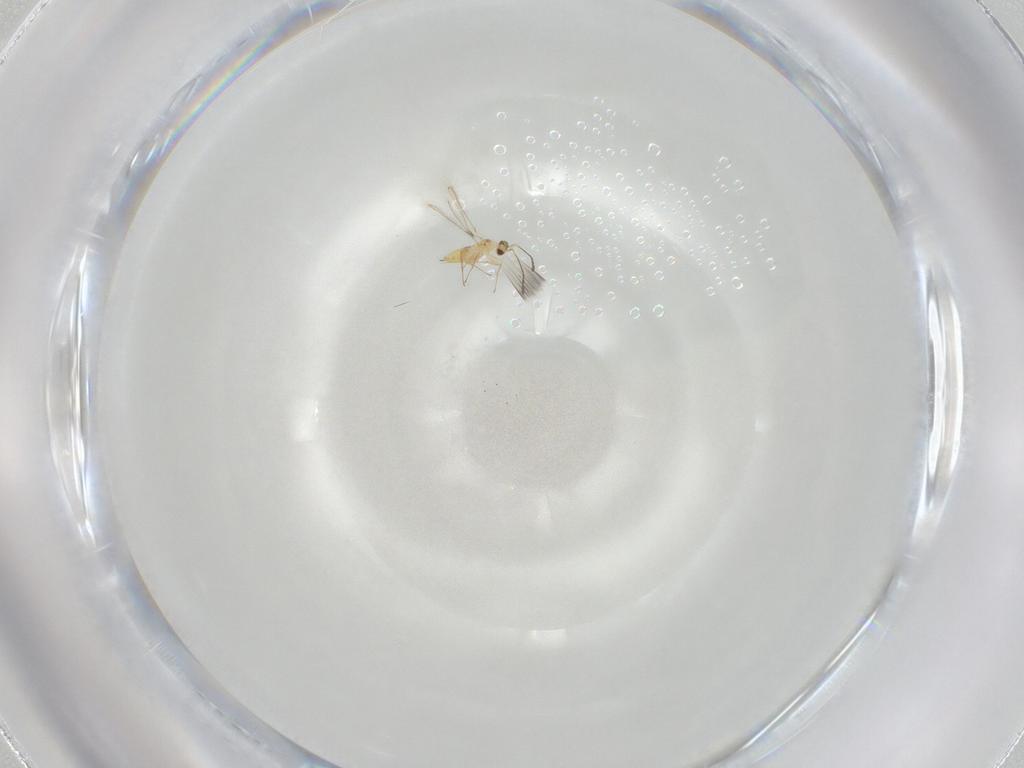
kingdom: Animalia
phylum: Arthropoda
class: Insecta
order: Hymenoptera
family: Mymaridae
